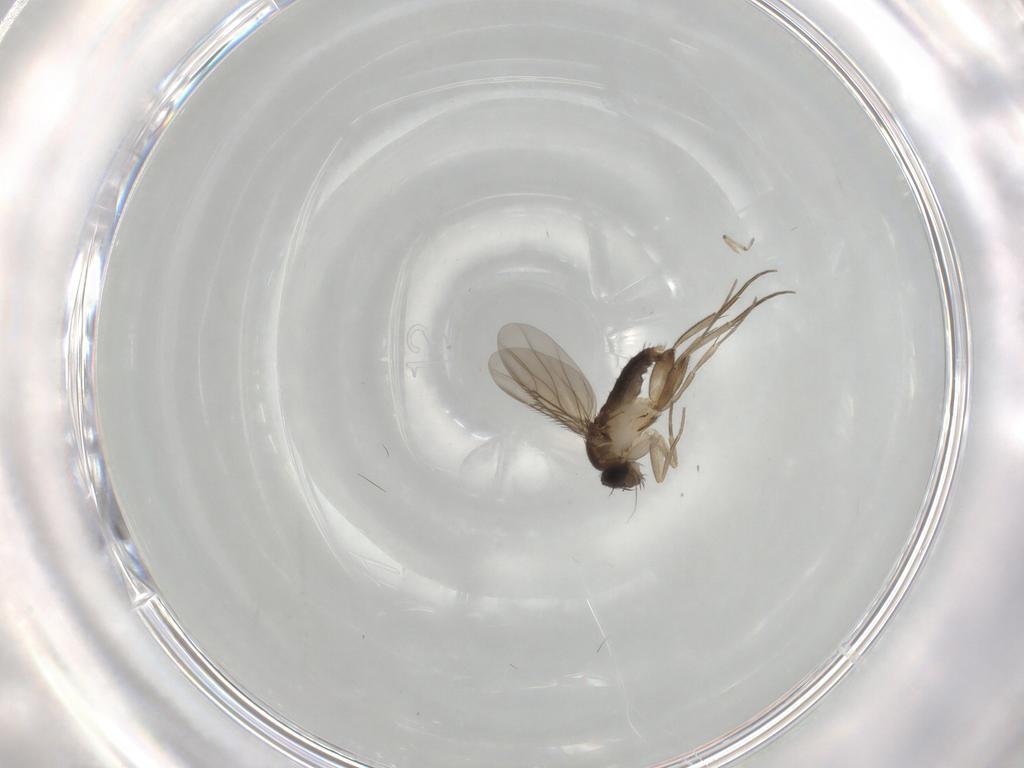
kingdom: Animalia
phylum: Arthropoda
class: Insecta
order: Diptera
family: Phoridae
